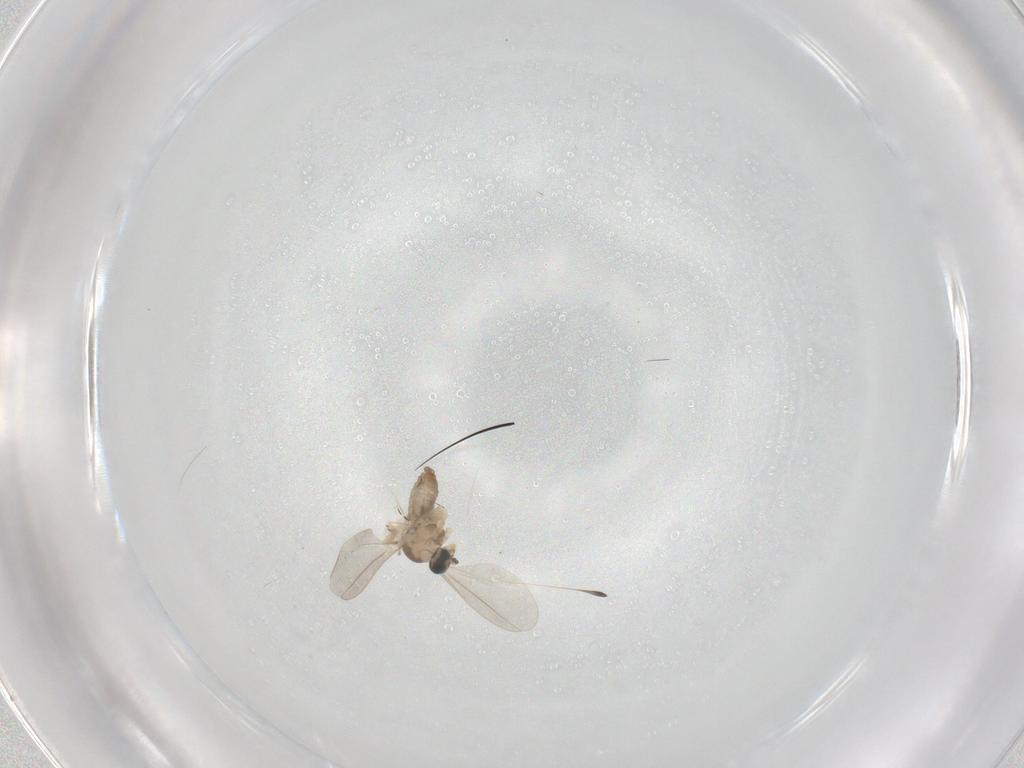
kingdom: Animalia
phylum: Arthropoda
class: Insecta
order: Diptera
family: Chironomidae
